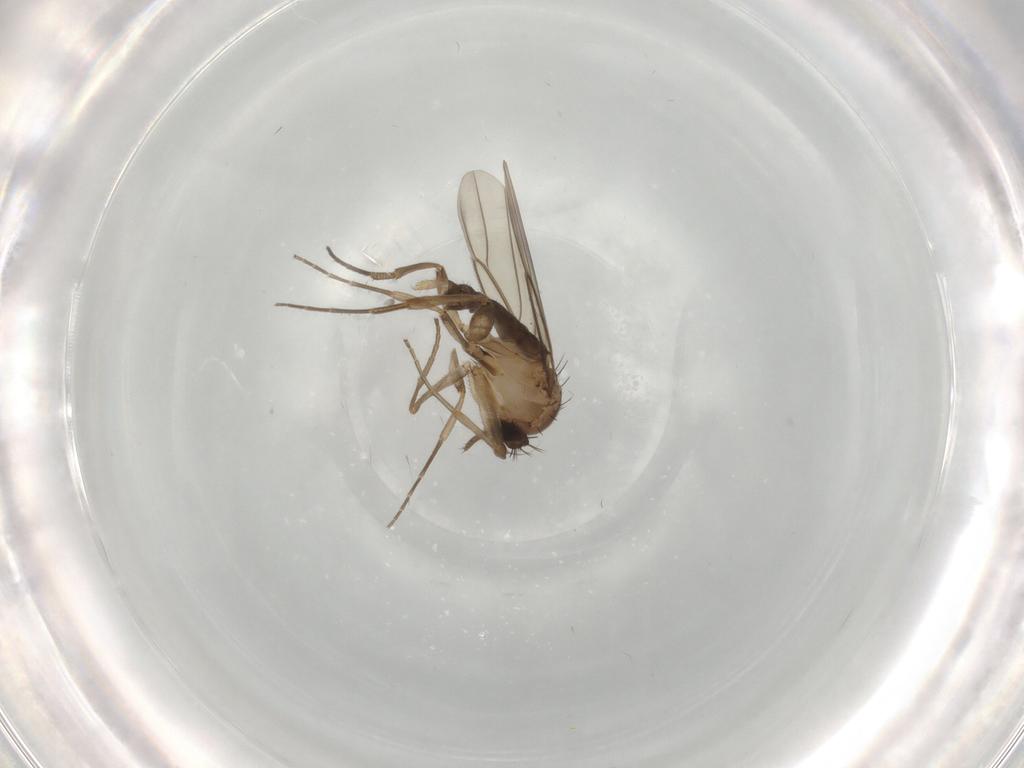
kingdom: Animalia
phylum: Arthropoda
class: Insecta
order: Diptera
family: Phoridae
